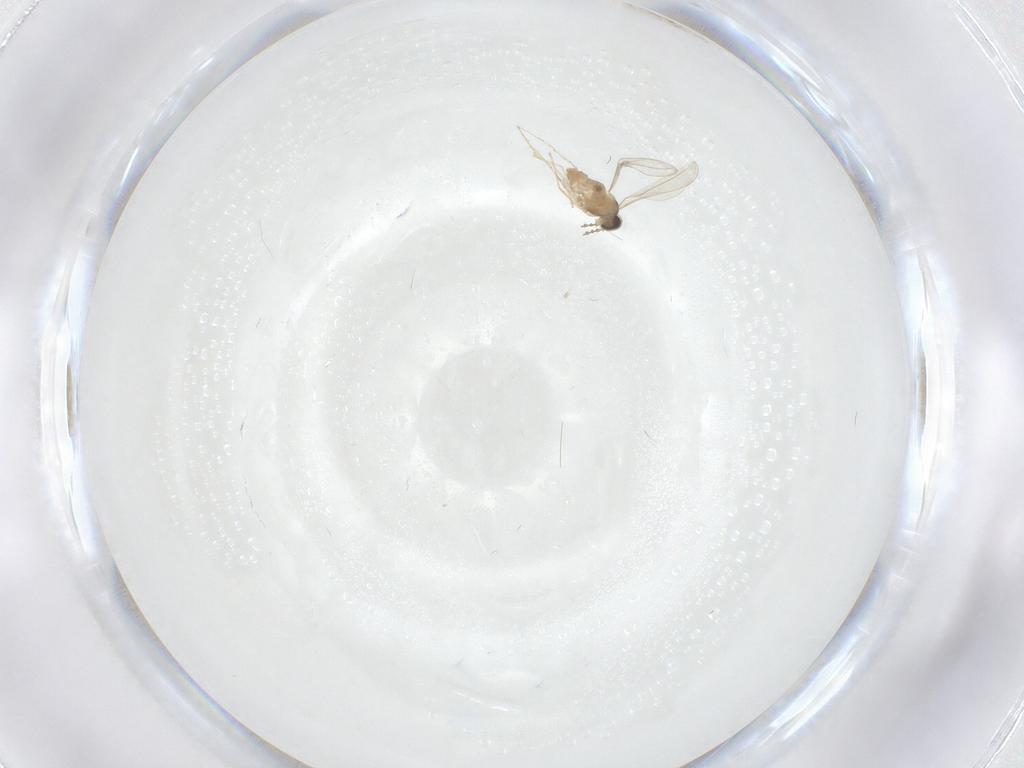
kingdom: Animalia
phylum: Arthropoda
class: Insecta
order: Diptera
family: Cecidomyiidae
